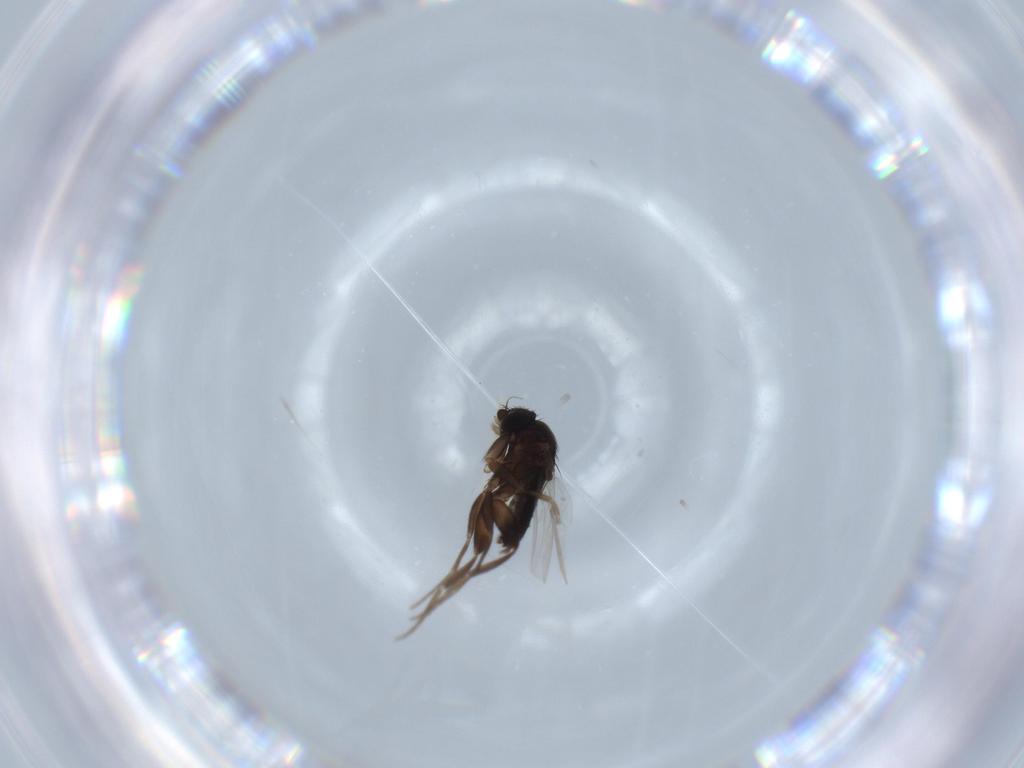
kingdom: Animalia
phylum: Arthropoda
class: Insecta
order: Diptera
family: Phoridae
